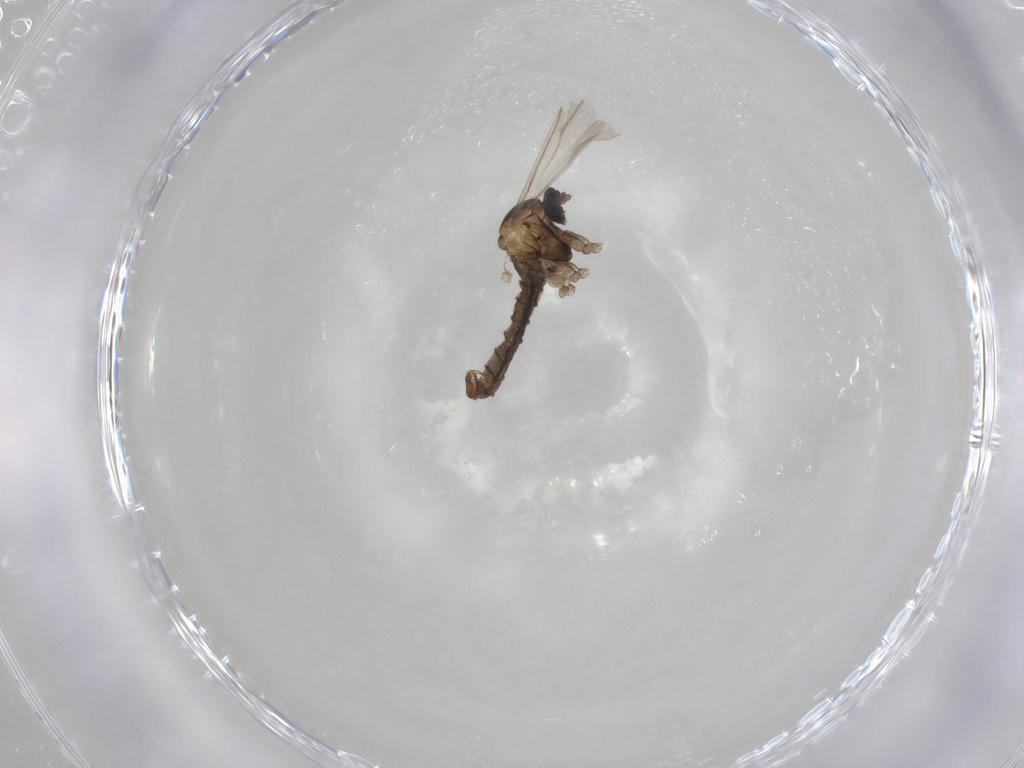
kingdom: Animalia
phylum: Arthropoda
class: Insecta
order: Diptera
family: Cecidomyiidae
